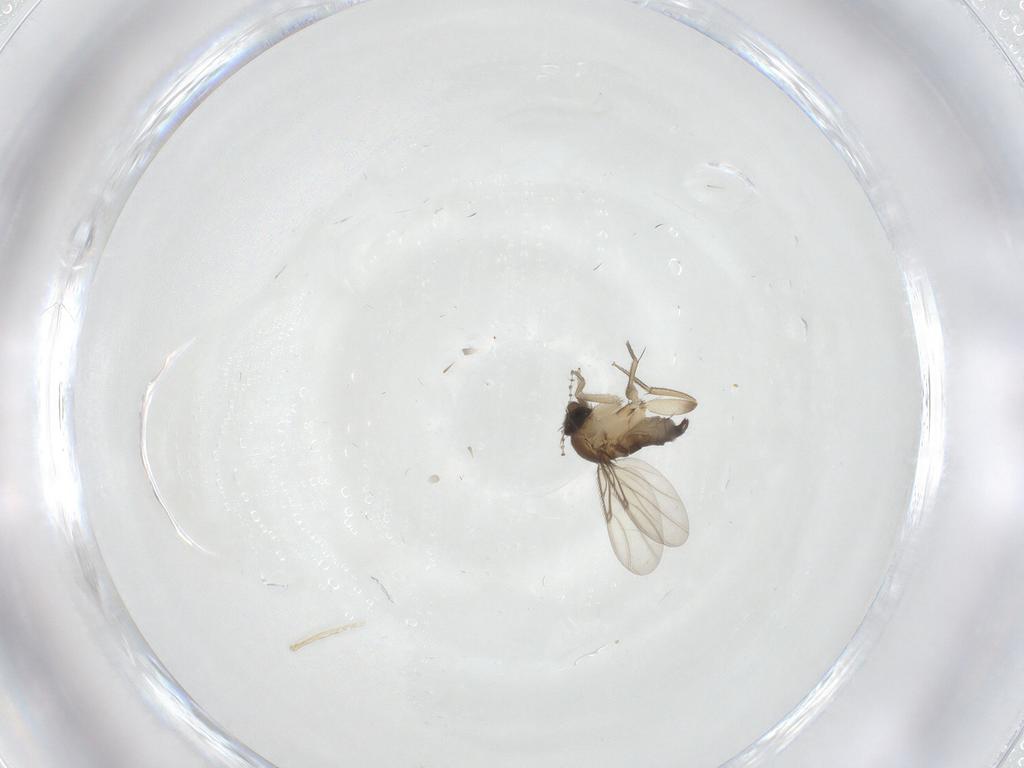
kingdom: Animalia
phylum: Arthropoda
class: Insecta
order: Diptera
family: Cecidomyiidae
